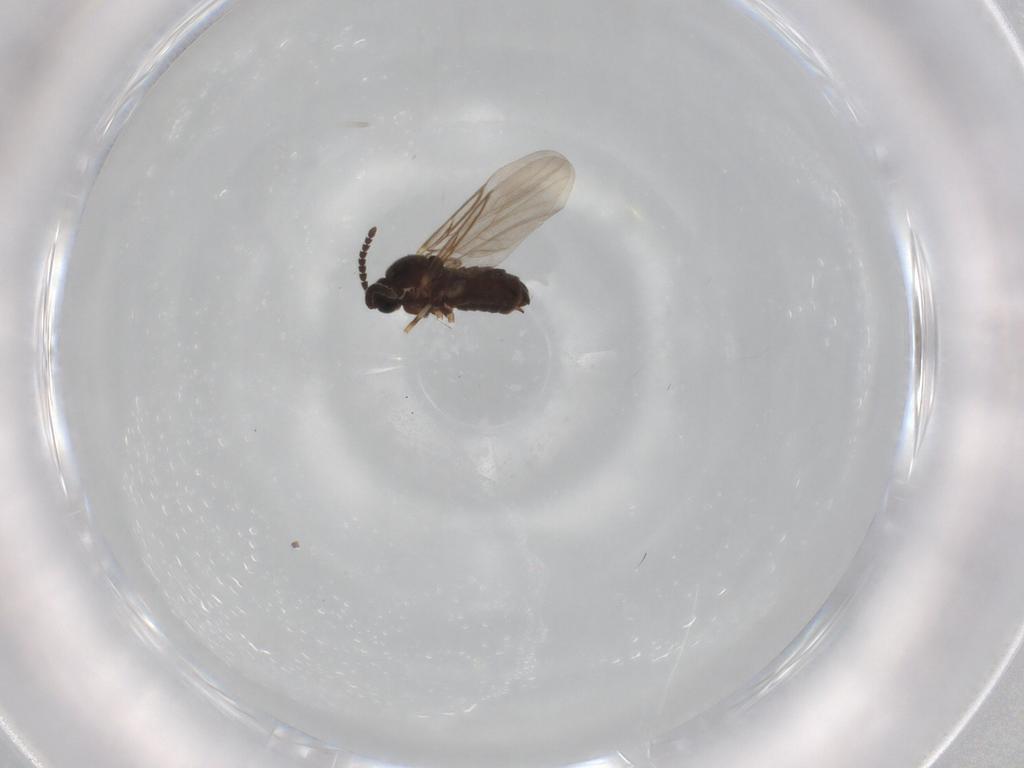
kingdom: Animalia
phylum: Arthropoda
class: Insecta
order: Diptera
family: Scatopsidae
